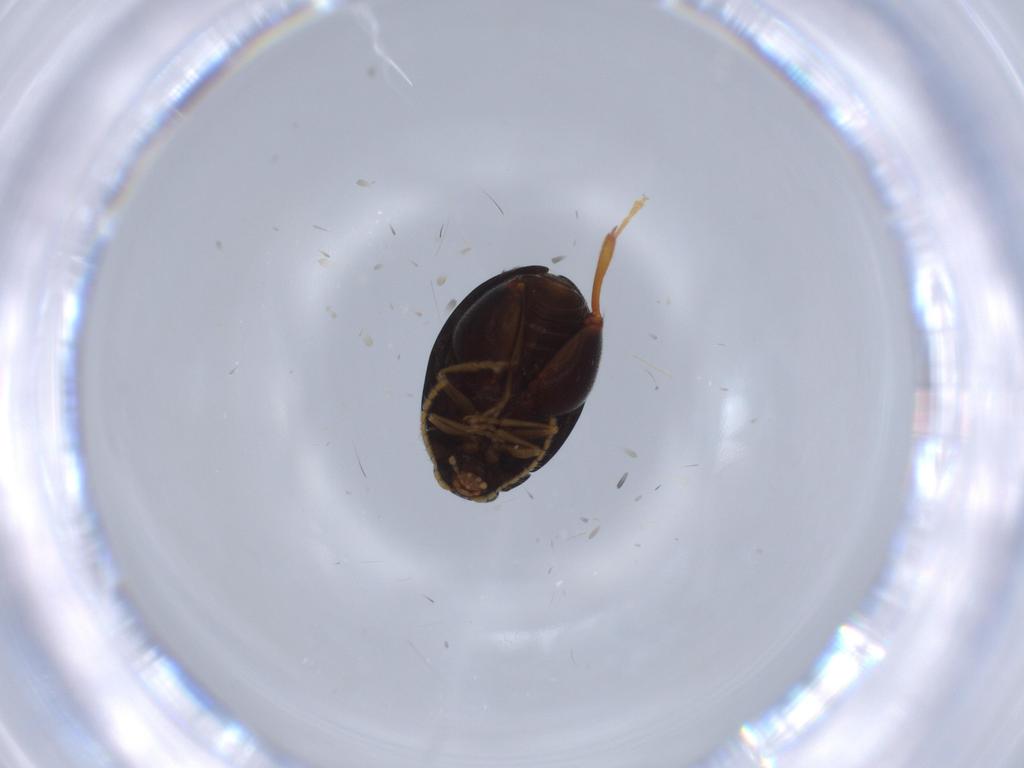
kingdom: Animalia
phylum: Arthropoda
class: Insecta
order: Coleoptera
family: Chrysomelidae
